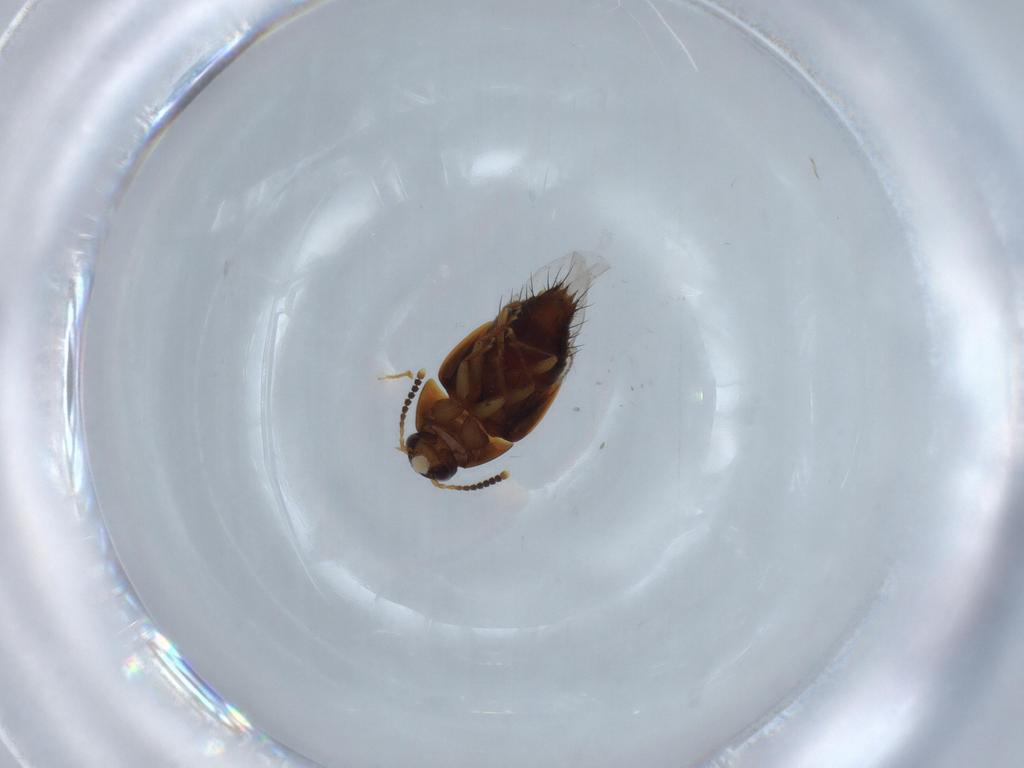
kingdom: Animalia
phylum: Arthropoda
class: Insecta
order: Coleoptera
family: Staphylinidae
